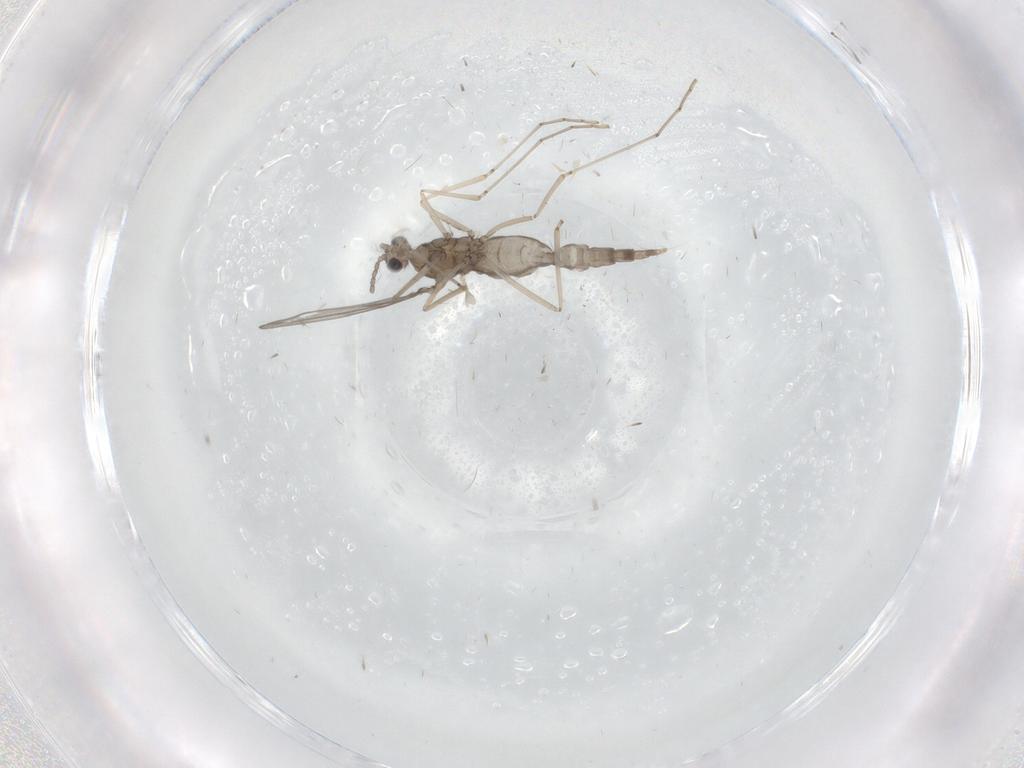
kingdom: Animalia
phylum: Arthropoda
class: Insecta
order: Diptera
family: Cecidomyiidae
